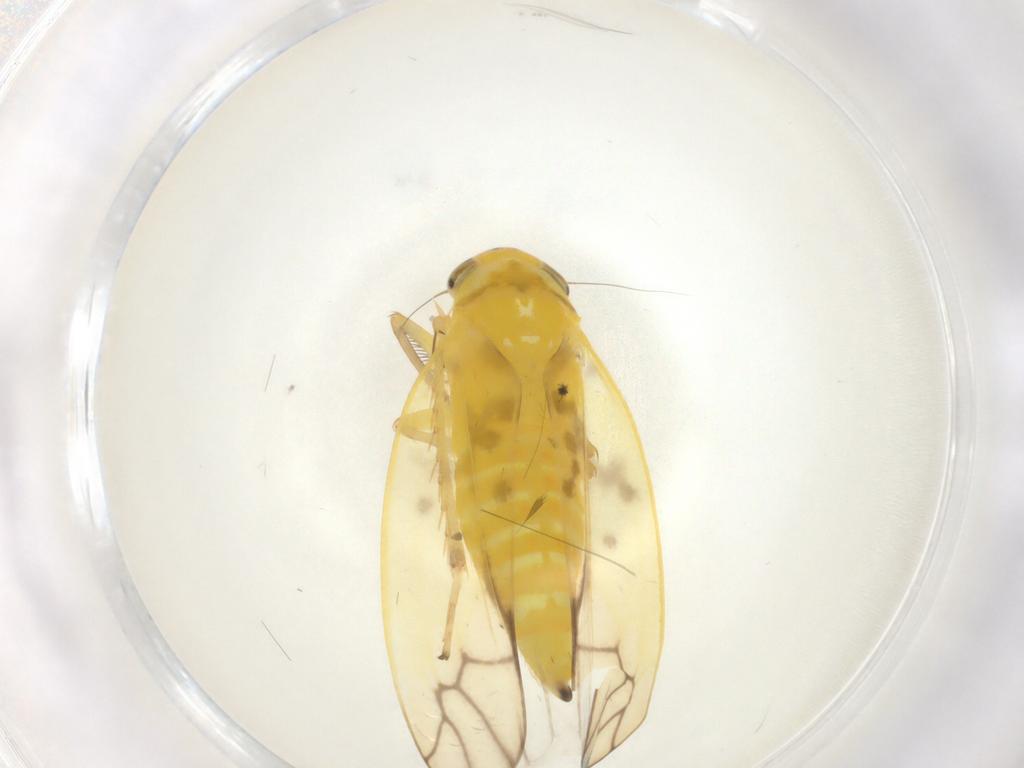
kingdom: Animalia
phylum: Arthropoda
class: Insecta
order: Hemiptera
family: Cicadellidae
